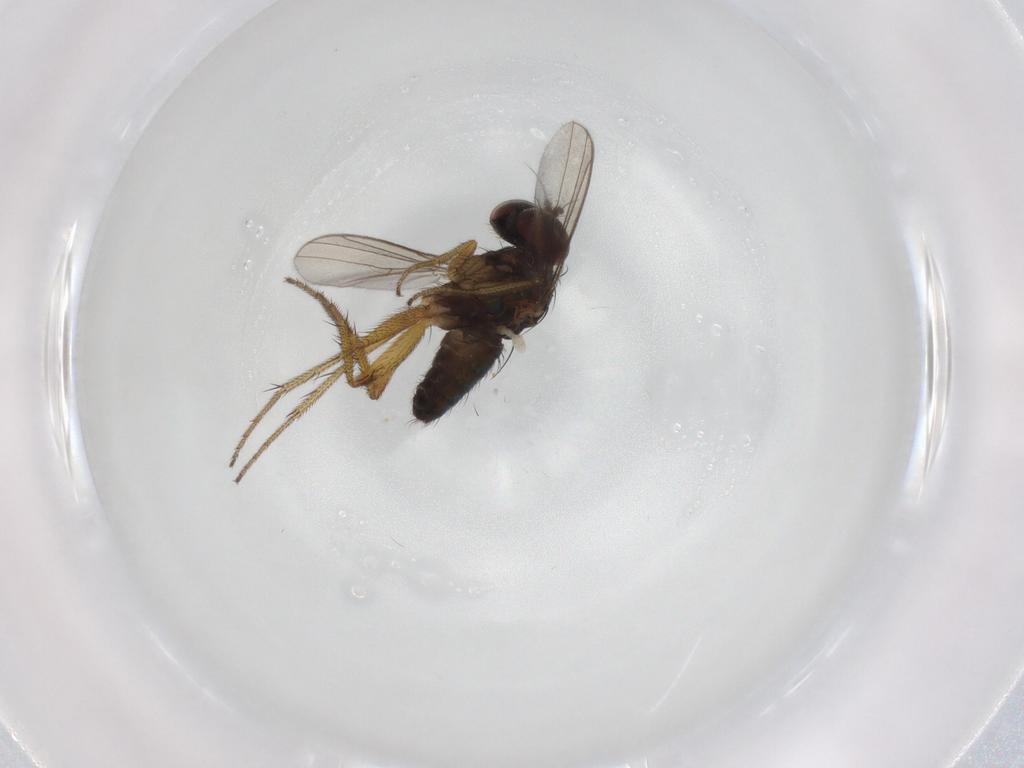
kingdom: Animalia
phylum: Arthropoda
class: Insecta
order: Diptera
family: Dolichopodidae
